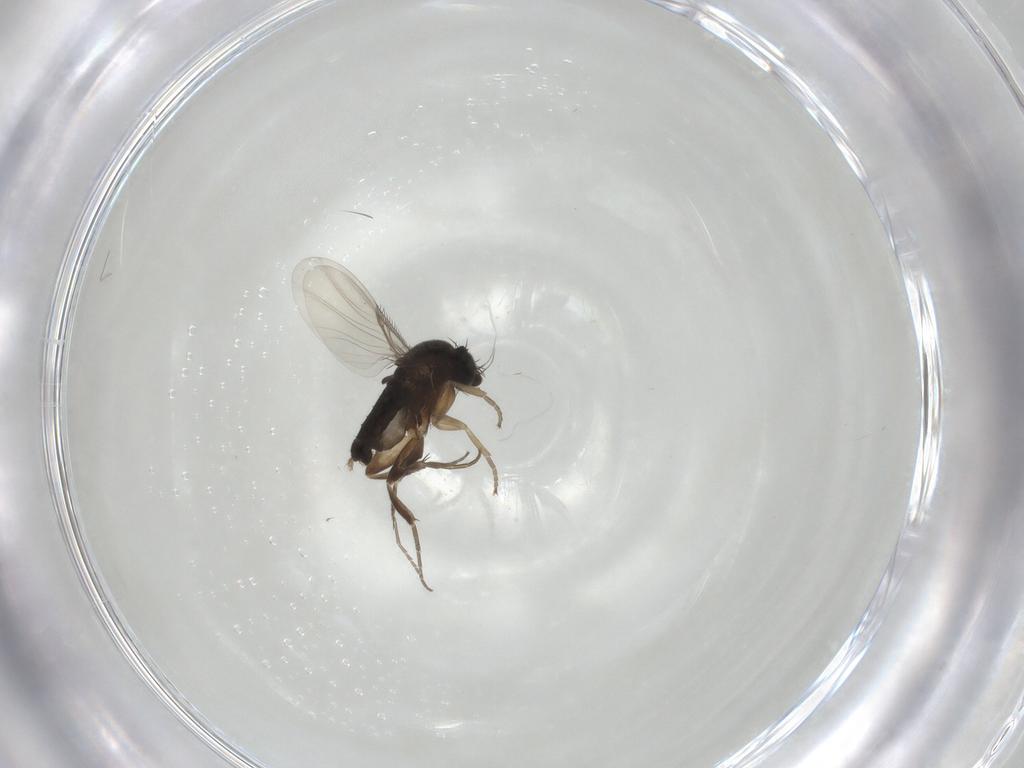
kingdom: Animalia
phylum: Arthropoda
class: Insecta
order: Diptera
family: Phoridae
